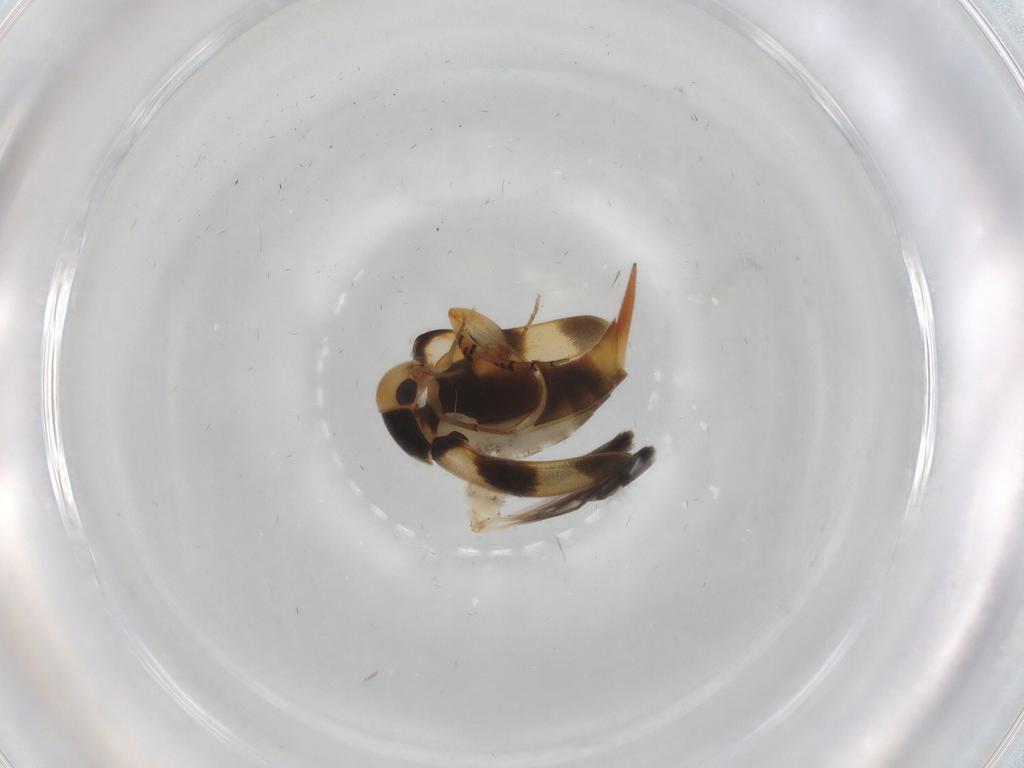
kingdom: Animalia
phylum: Arthropoda
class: Insecta
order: Coleoptera
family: Mordellidae
